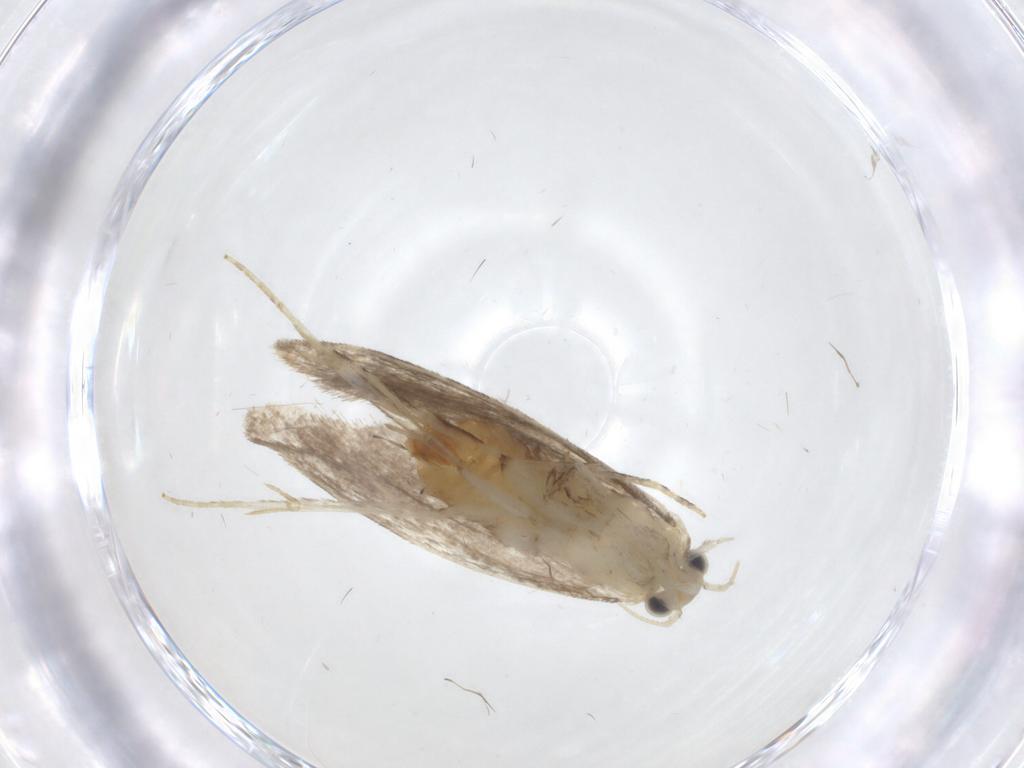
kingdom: Animalia
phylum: Arthropoda
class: Insecta
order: Lepidoptera
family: Tineidae
